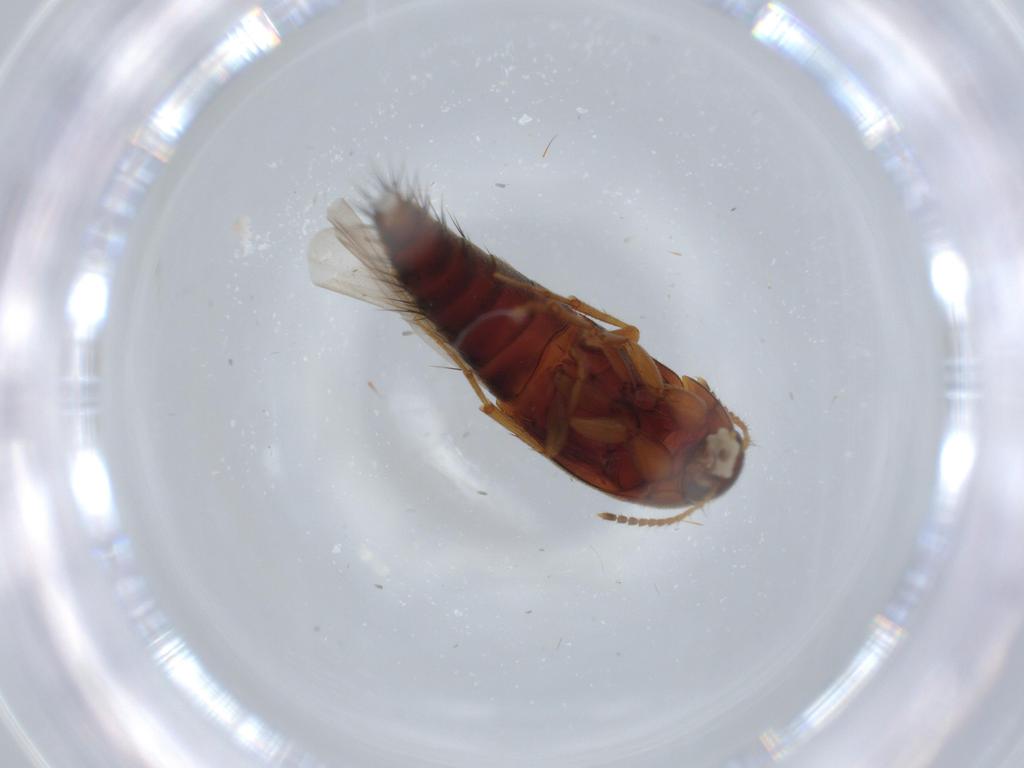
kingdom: Animalia
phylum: Arthropoda
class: Insecta
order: Coleoptera
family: Staphylinidae
